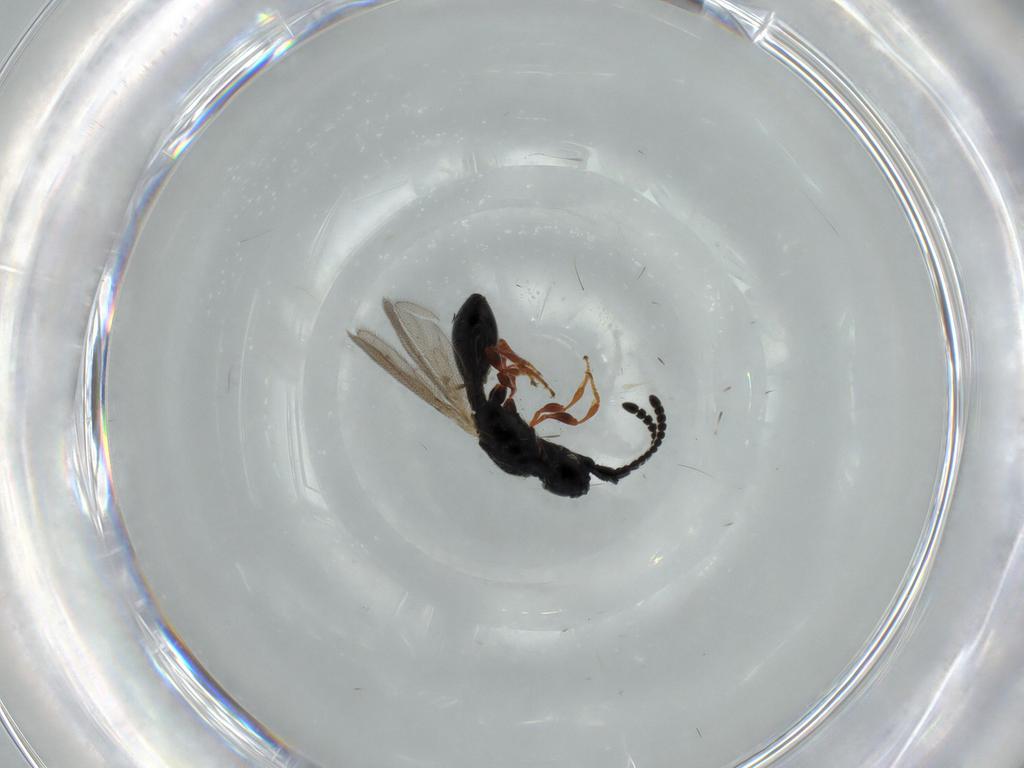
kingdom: Animalia
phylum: Arthropoda
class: Insecta
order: Hymenoptera
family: Diapriidae
